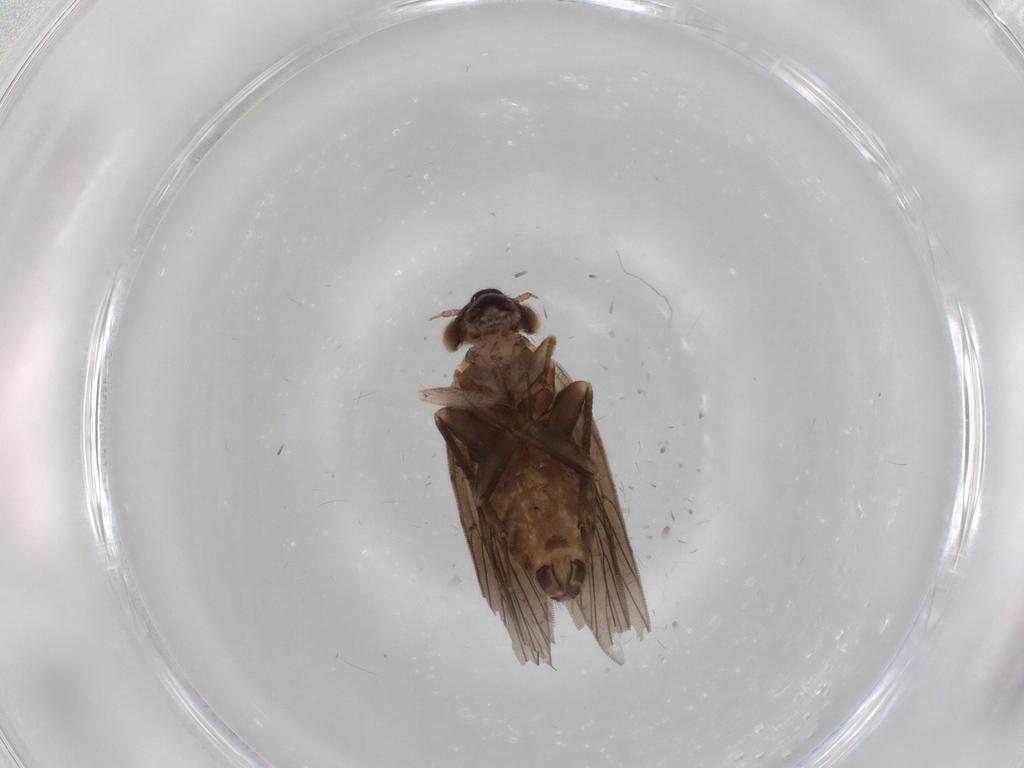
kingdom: Animalia
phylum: Arthropoda
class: Insecta
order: Psocodea
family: Lepidopsocidae
